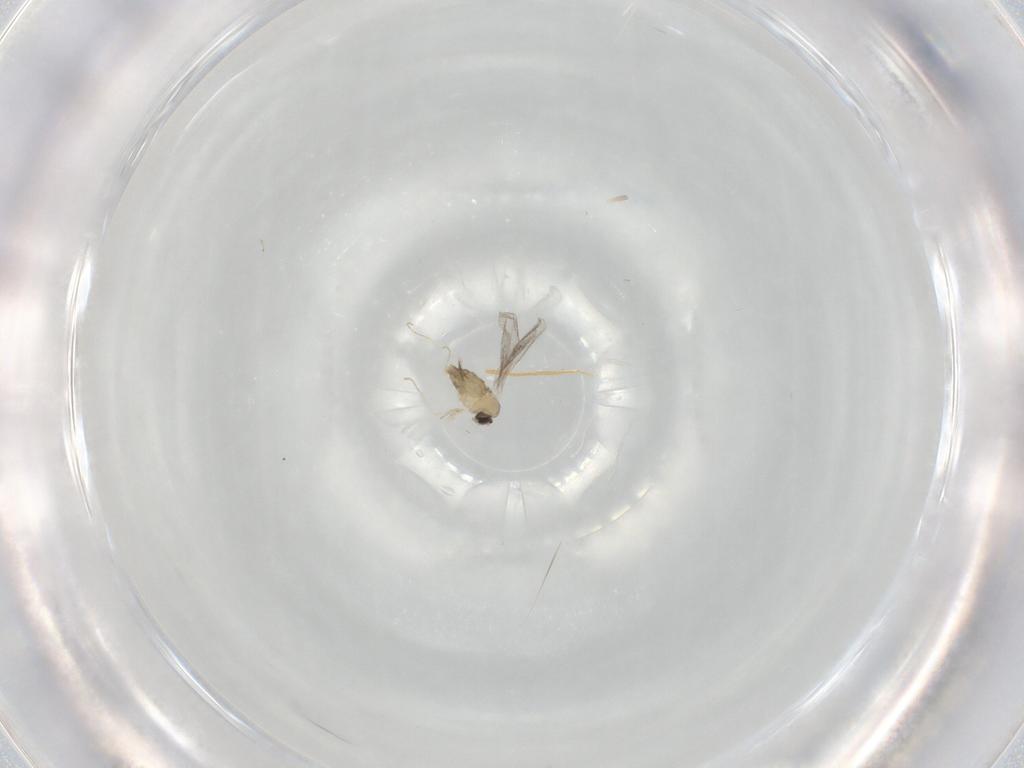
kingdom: Animalia
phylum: Arthropoda
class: Insecta
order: Diptera
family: Cecidomyiidae
